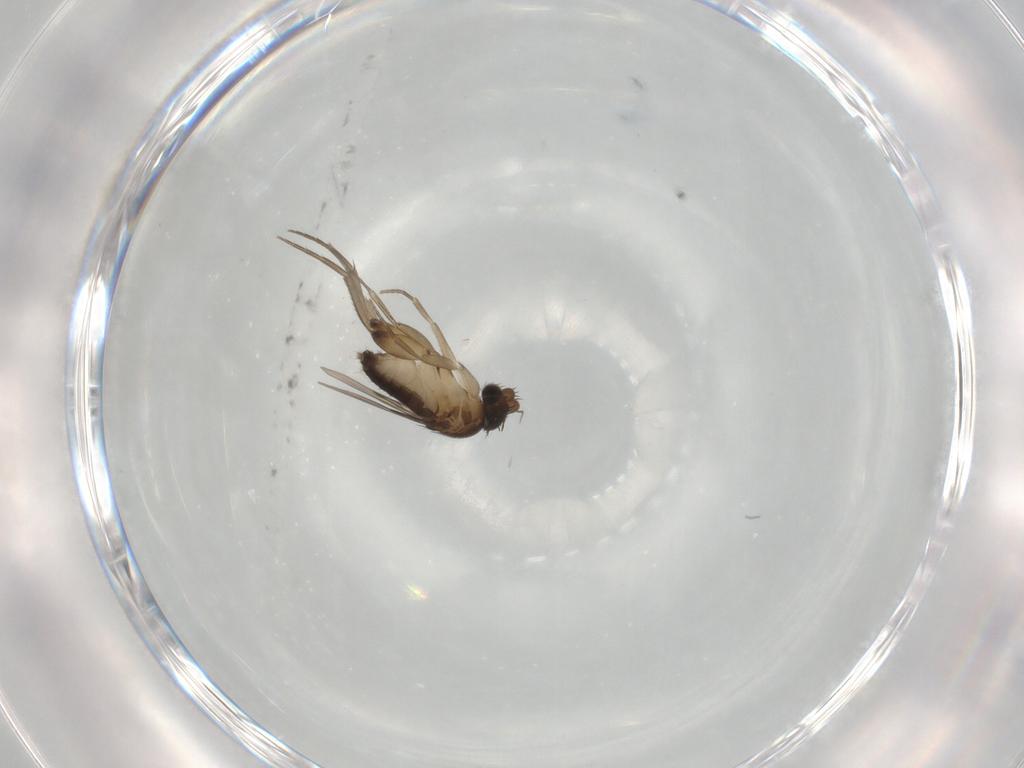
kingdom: Animalia
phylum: Arthropoda
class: Insecta
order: Diptera
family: Phoridae
